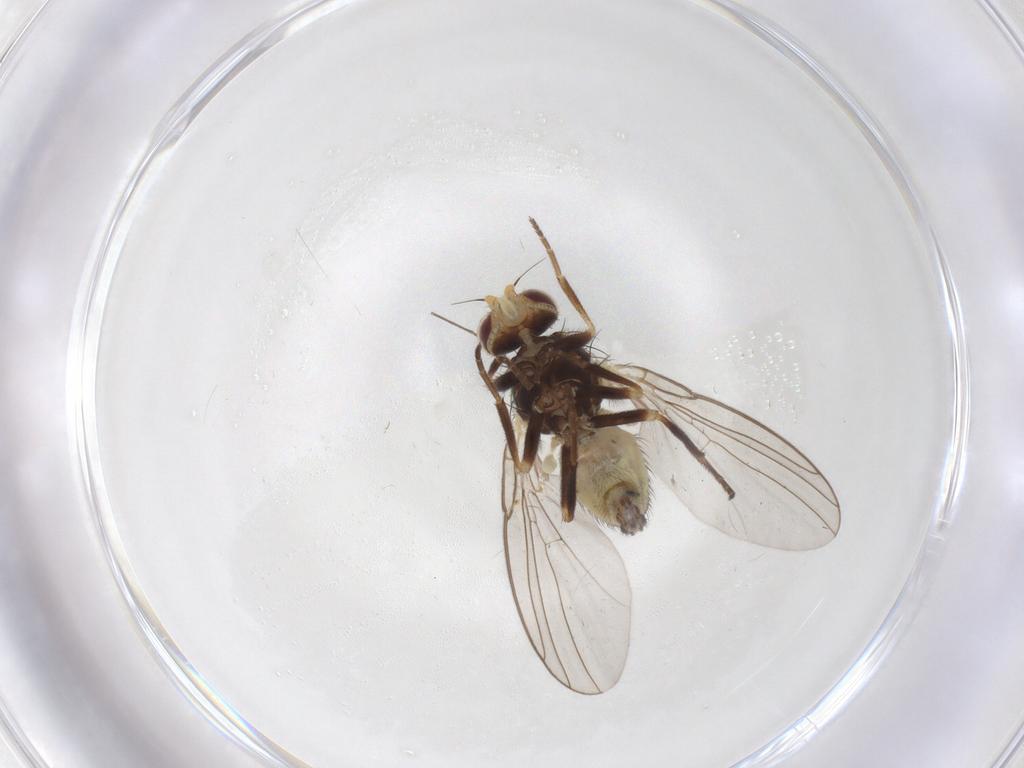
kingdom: Animalia
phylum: Arthropoda
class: Insecta
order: Diptera
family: Agromyzidae
